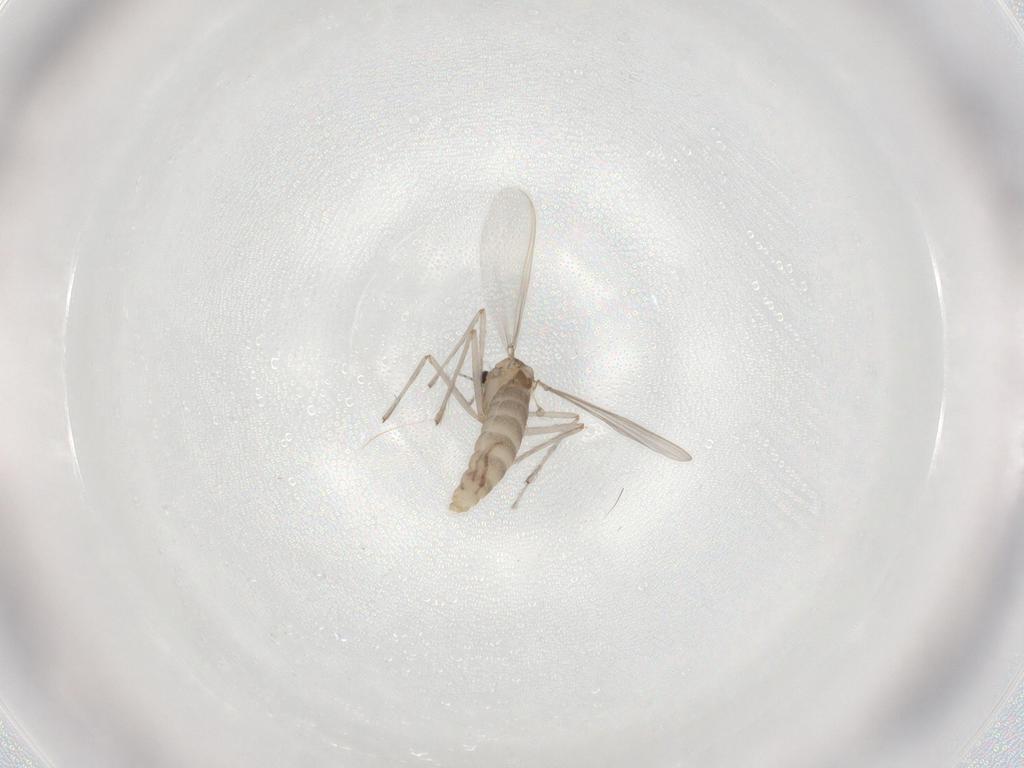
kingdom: Animalia
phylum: Arthropoda
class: Insecta
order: Diptera
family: Chironomidae
